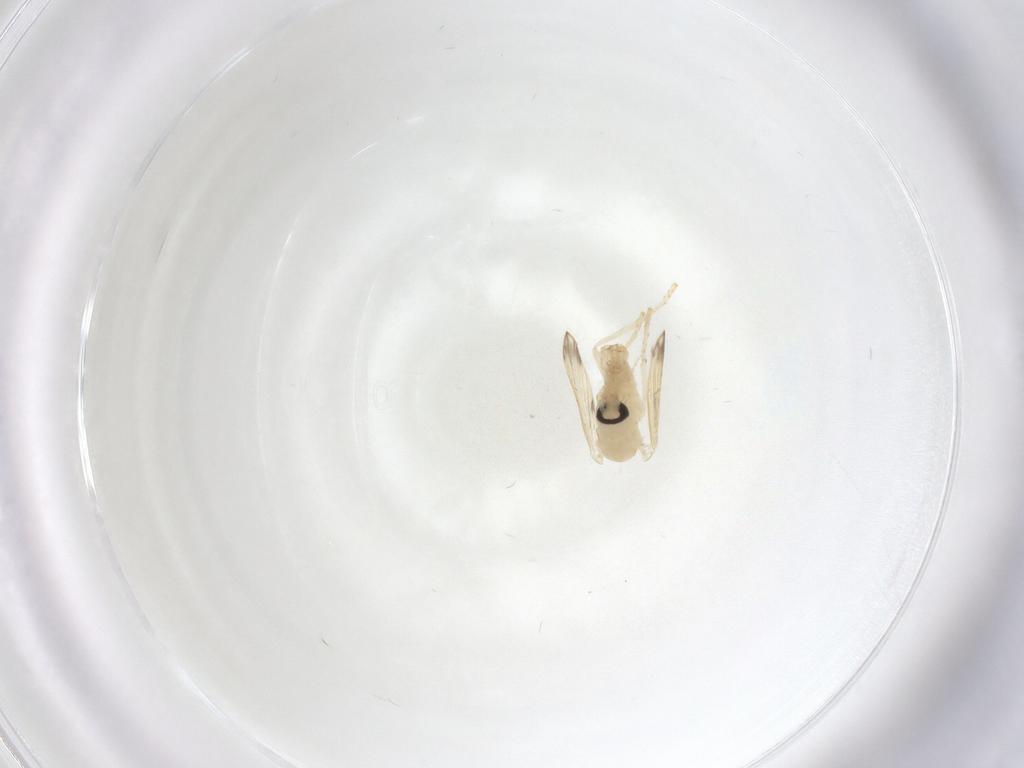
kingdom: Animalia
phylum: Arthropoda
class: Insecta
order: Diptera
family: Psychodidae
